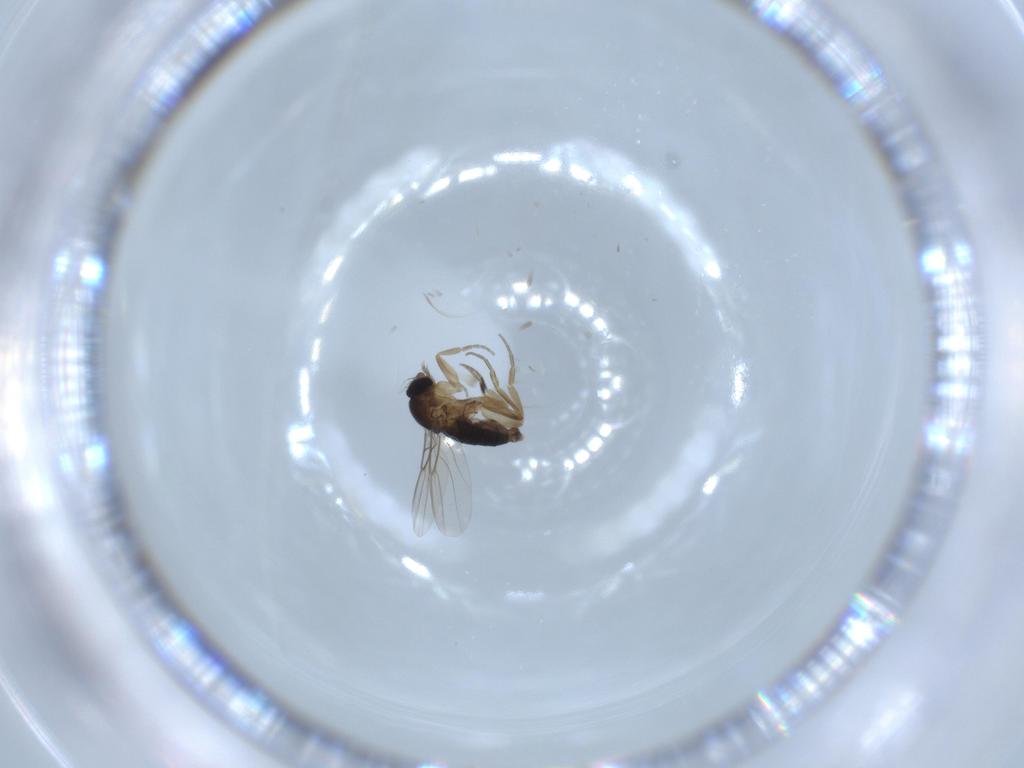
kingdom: Animalia
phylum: Arthropoda
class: Insecta
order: Diptera
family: Phoridae
